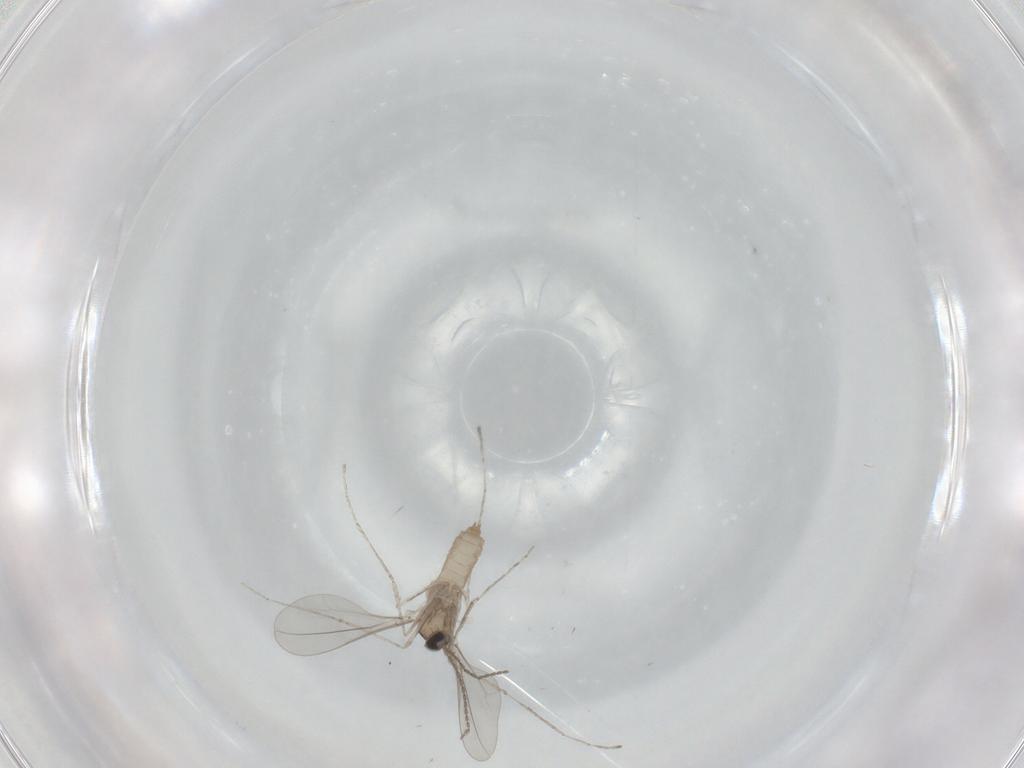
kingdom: Animalia
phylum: Arthropoda
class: Insecta
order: Diptera
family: Cecidomyiidae
